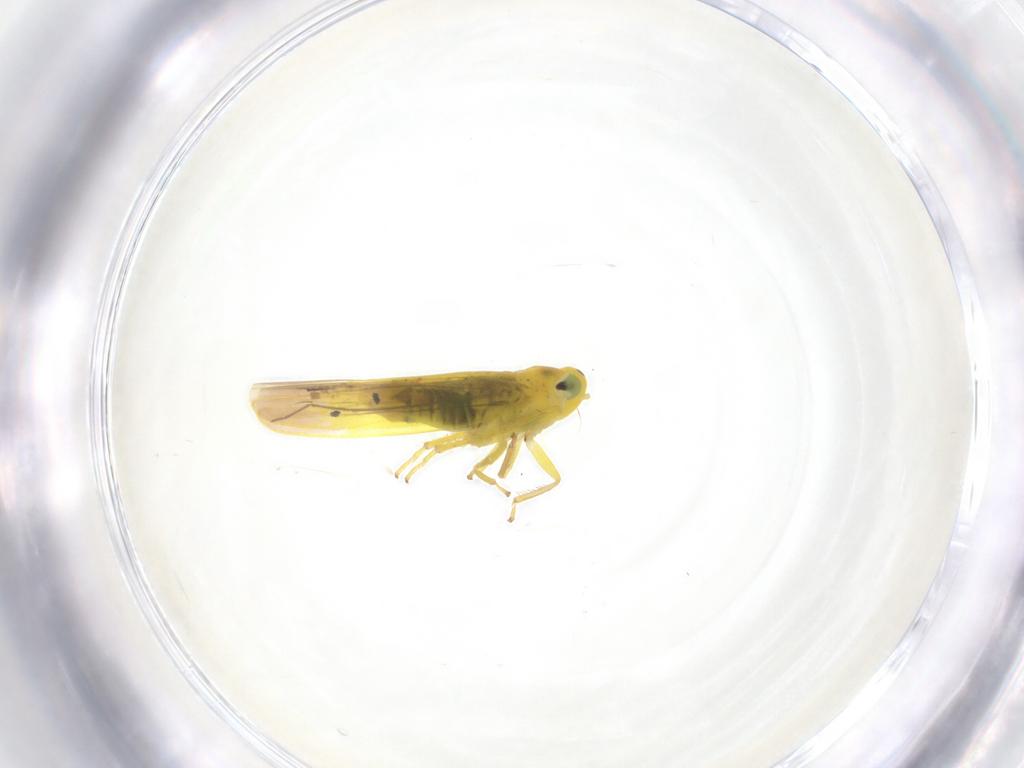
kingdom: Animalia
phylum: Arthropoda
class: Insecta
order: Hemiptera
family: Cicadellidae
